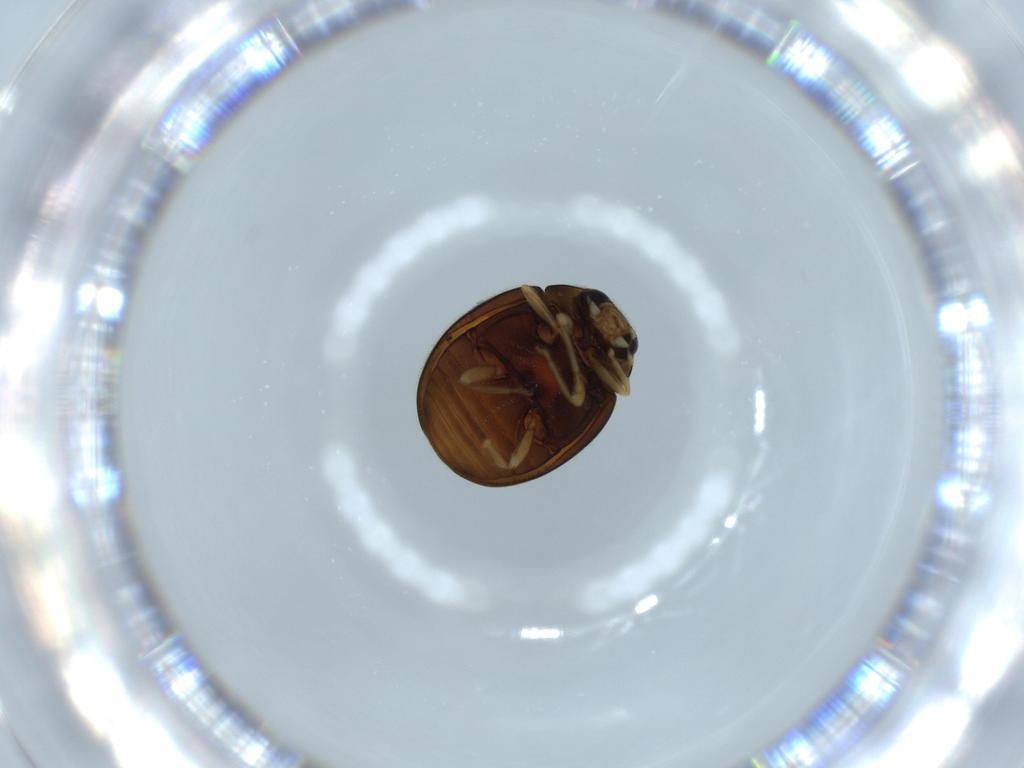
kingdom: Animalia
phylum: Arthropoda
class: Insecta
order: Coleoptera
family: Coccinellidae
